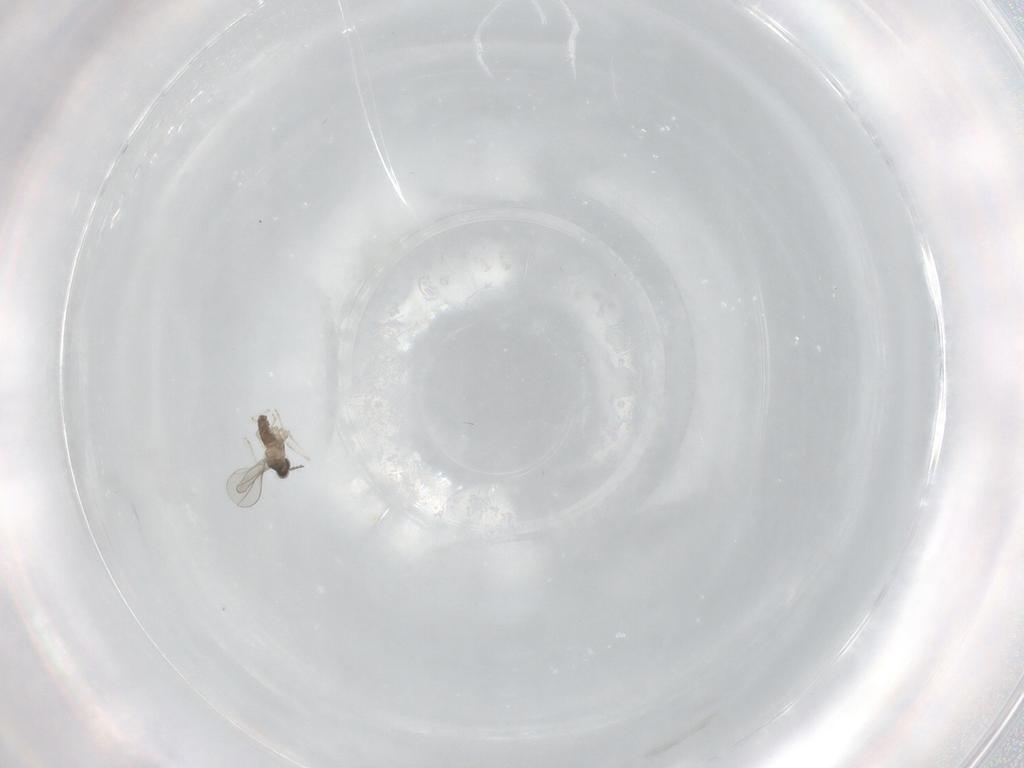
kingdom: Animalia
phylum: Arthropoda
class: Insecta
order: Diptera
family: Cecidomyiidae
